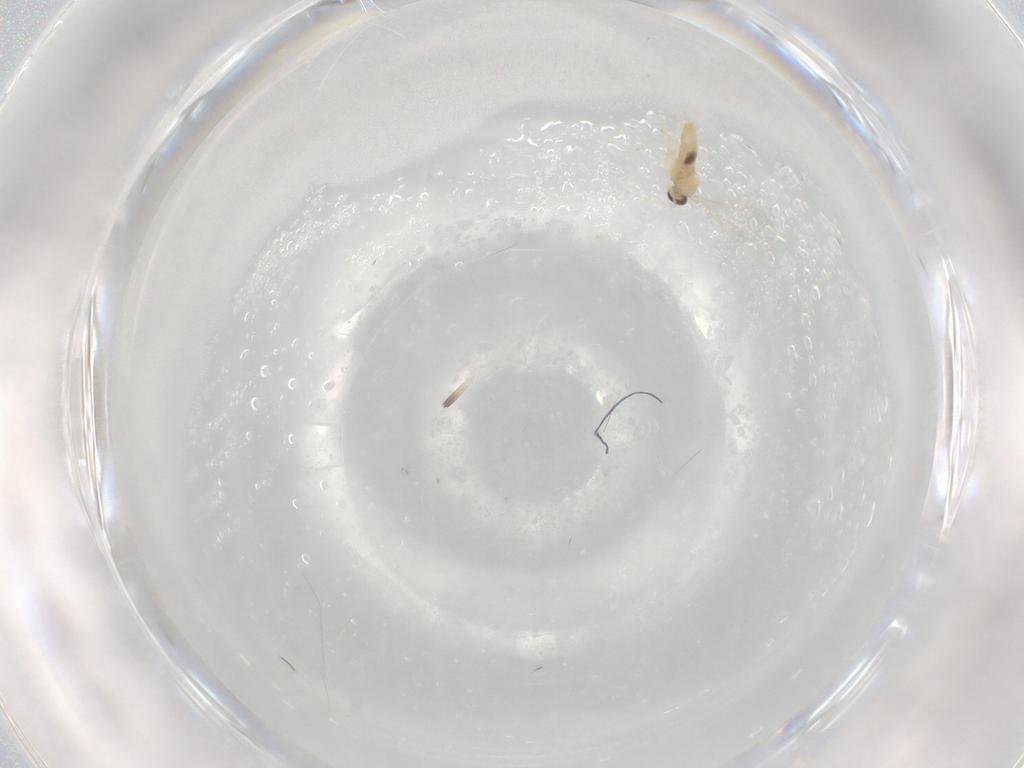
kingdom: Animalia
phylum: Arthropoda
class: Insecta
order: Diptera
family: Cecidomyiidae
